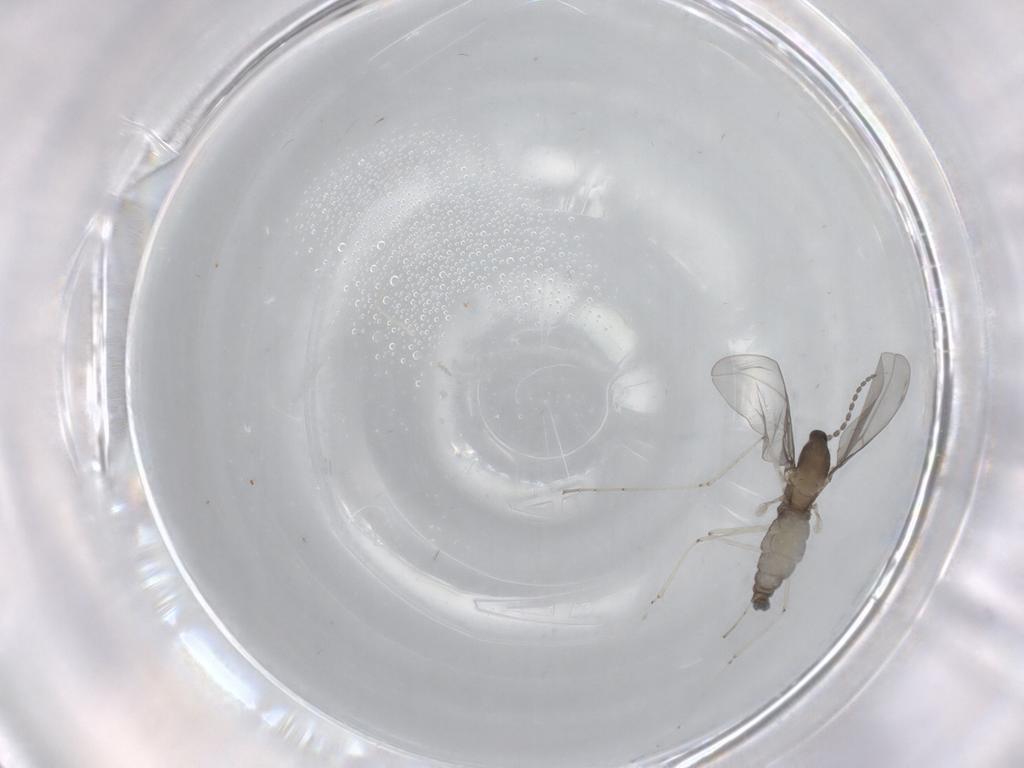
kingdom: Animalia
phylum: Arthropoda
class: Insecta
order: Diptera
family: Cecidomyiidae
